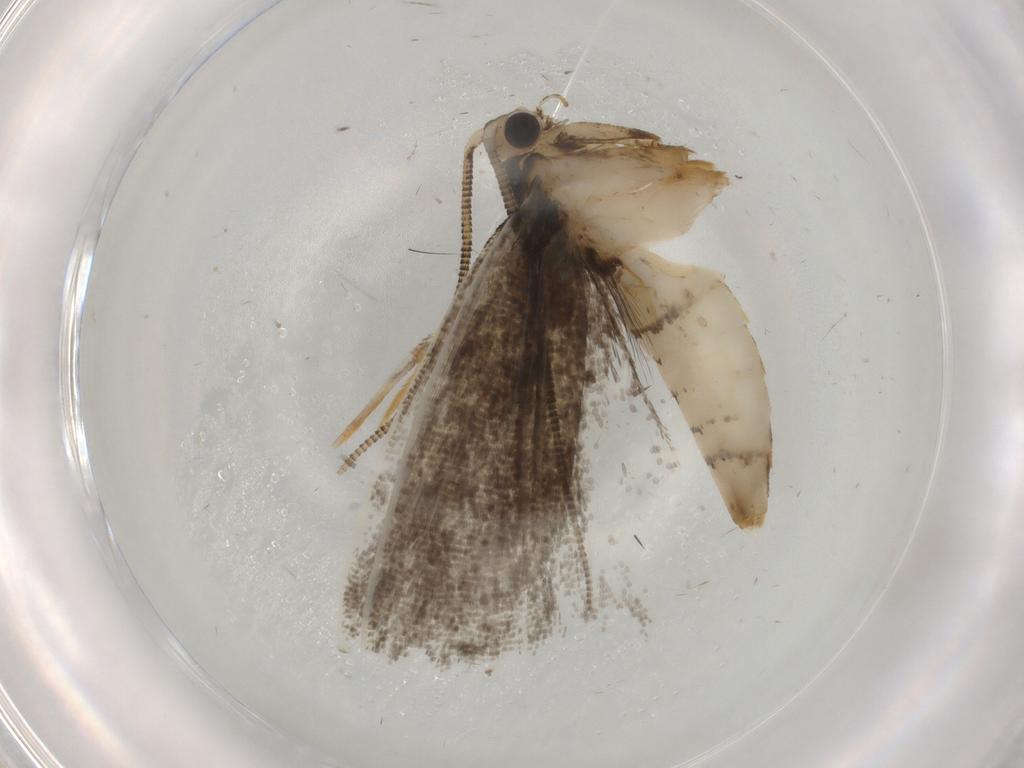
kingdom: Animalia
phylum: Arthropoda
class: Insecta
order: Lepidoptera
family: Tineidae
